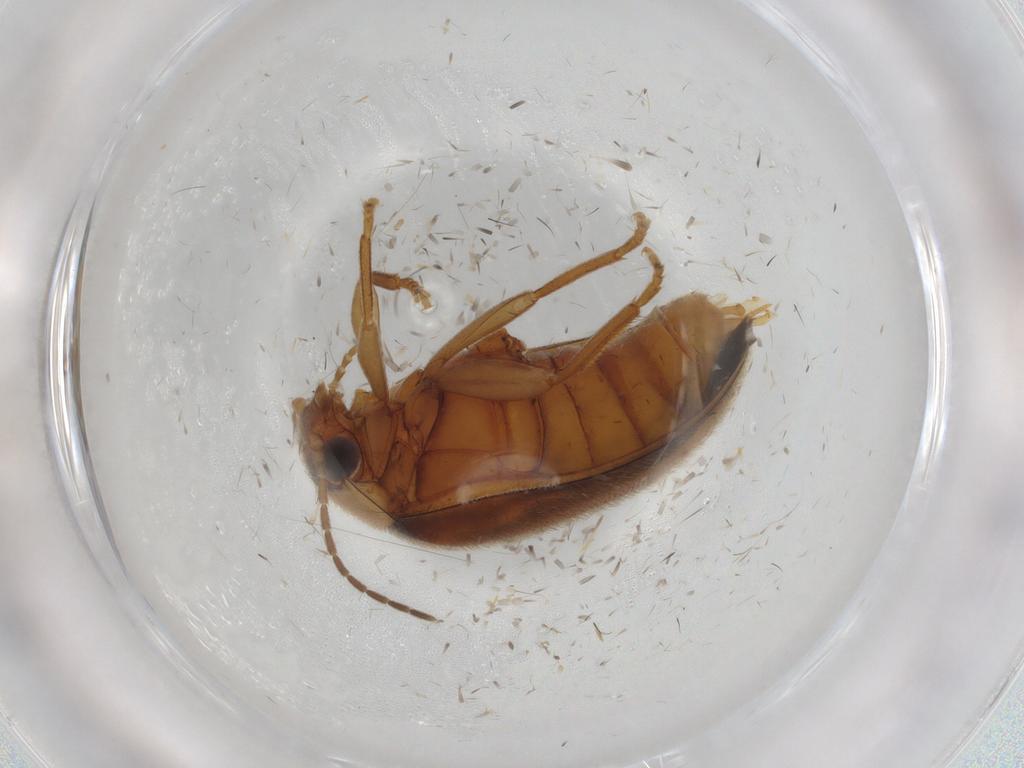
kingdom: Animalia
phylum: Arthropoda
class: Insecta
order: Coleoptera
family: Scirtidae
